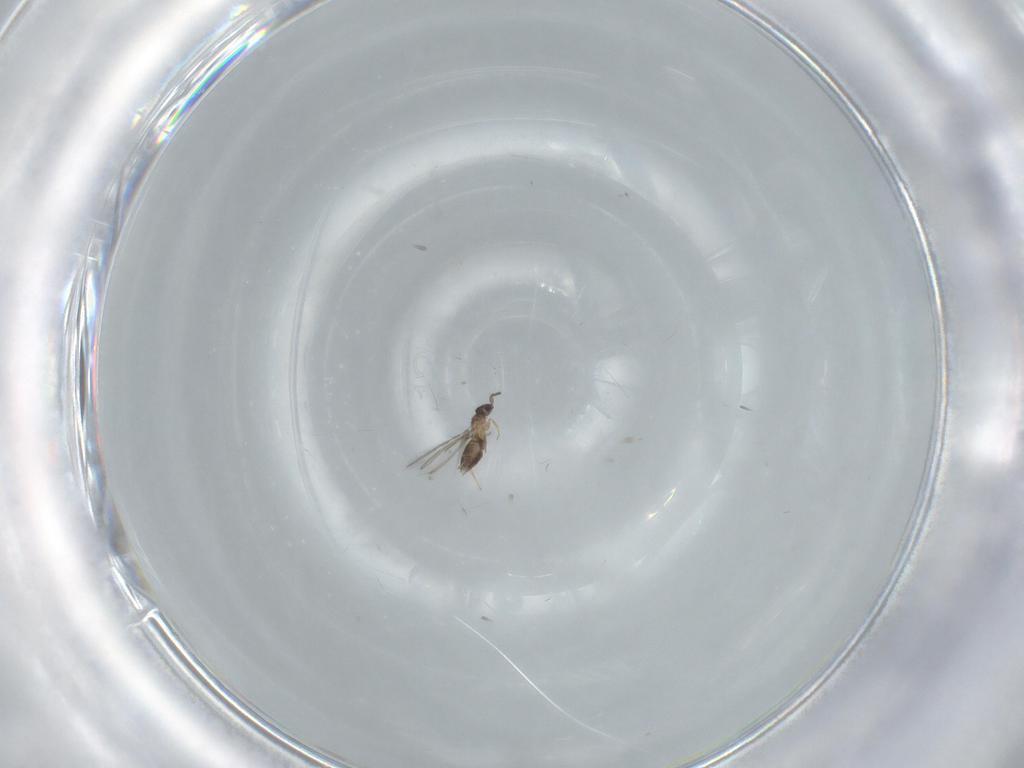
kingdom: Animalia
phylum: Arthropoda
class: Insecta
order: Hymenoptera
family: Mymaridae
